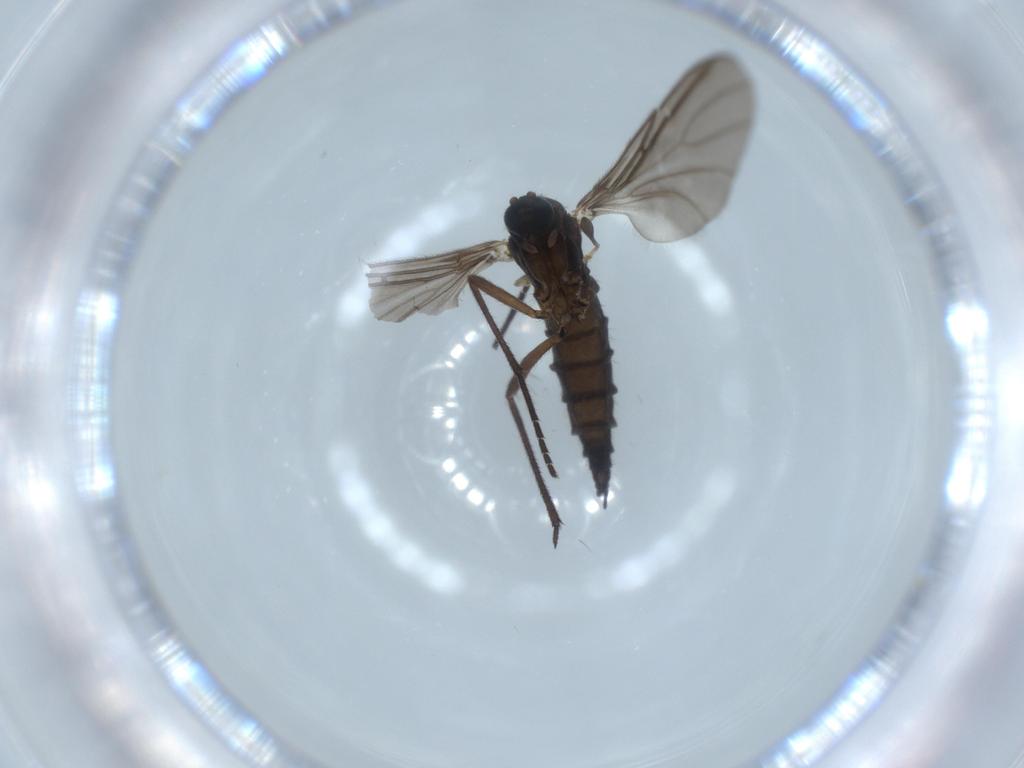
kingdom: Animalia
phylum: Arthropoda
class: Insecta
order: Diptera
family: Sciaridae
